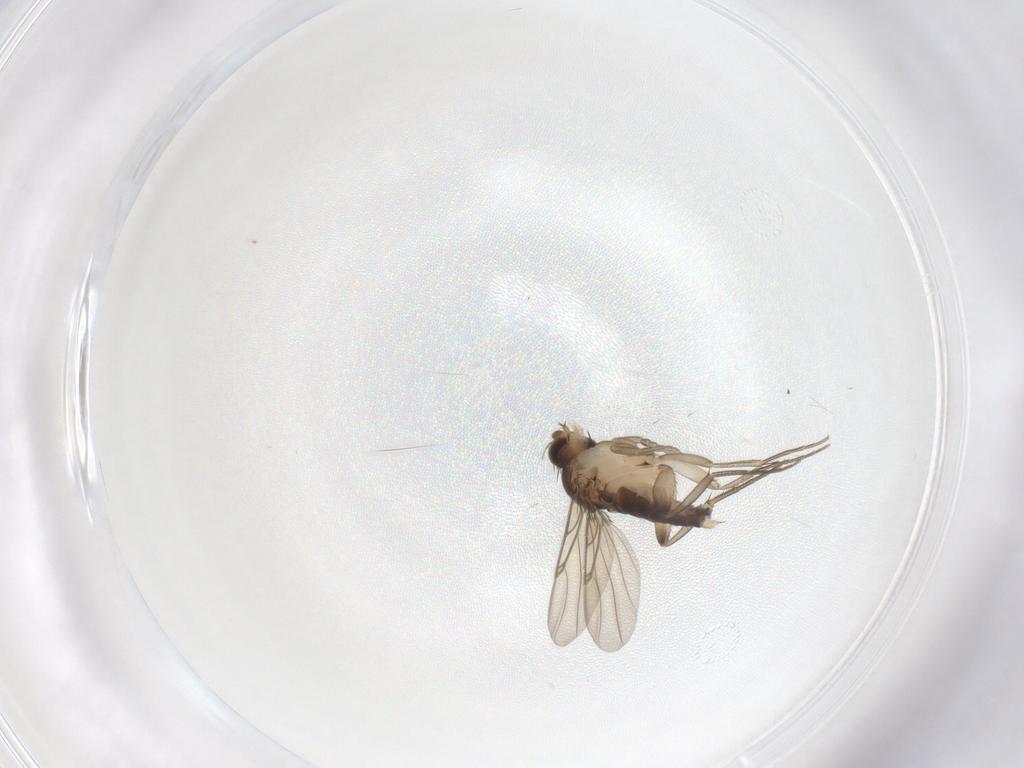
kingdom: Animalia
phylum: Arthropoda
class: Insecta
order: Diptera
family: Phoridae
